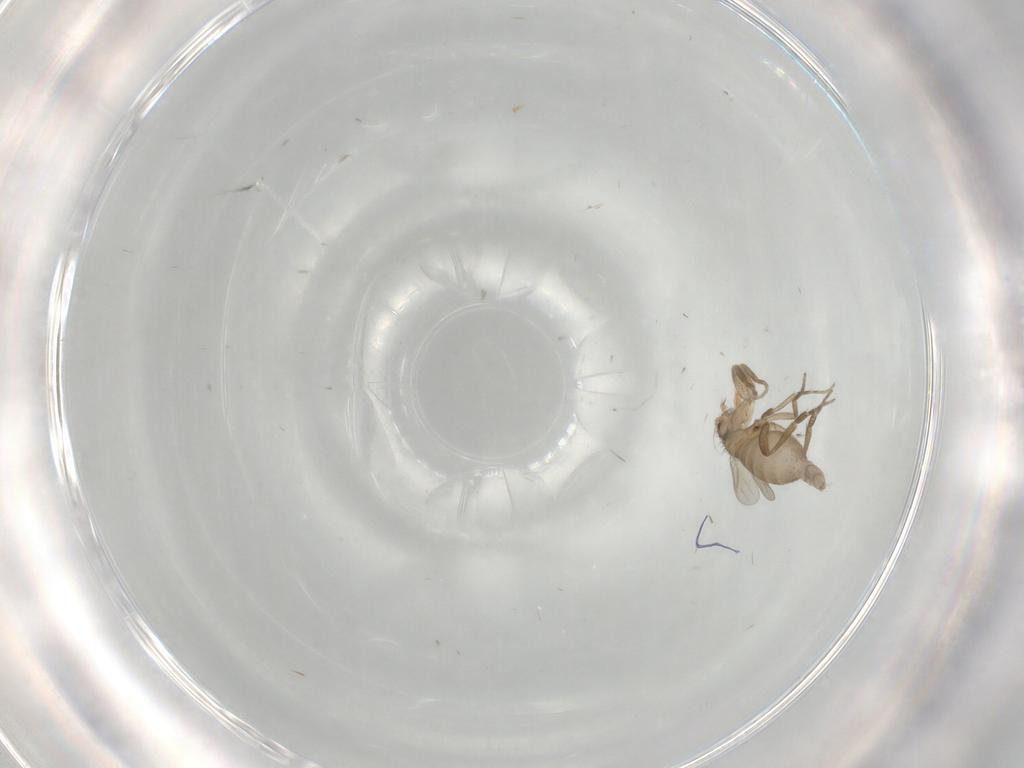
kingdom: Animalia
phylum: Arthropoda
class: Insecta
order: Diptera
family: Chironomidae
